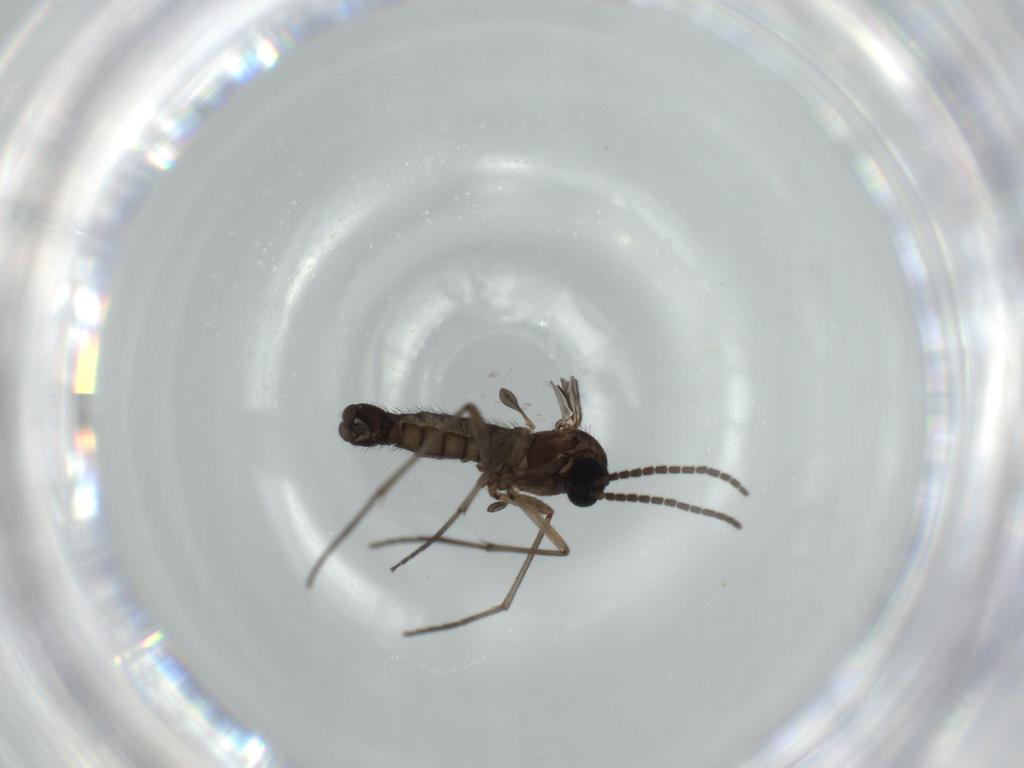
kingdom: Animalia
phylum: Arthropoda
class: Insecta
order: Diptera
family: Sciaridae
